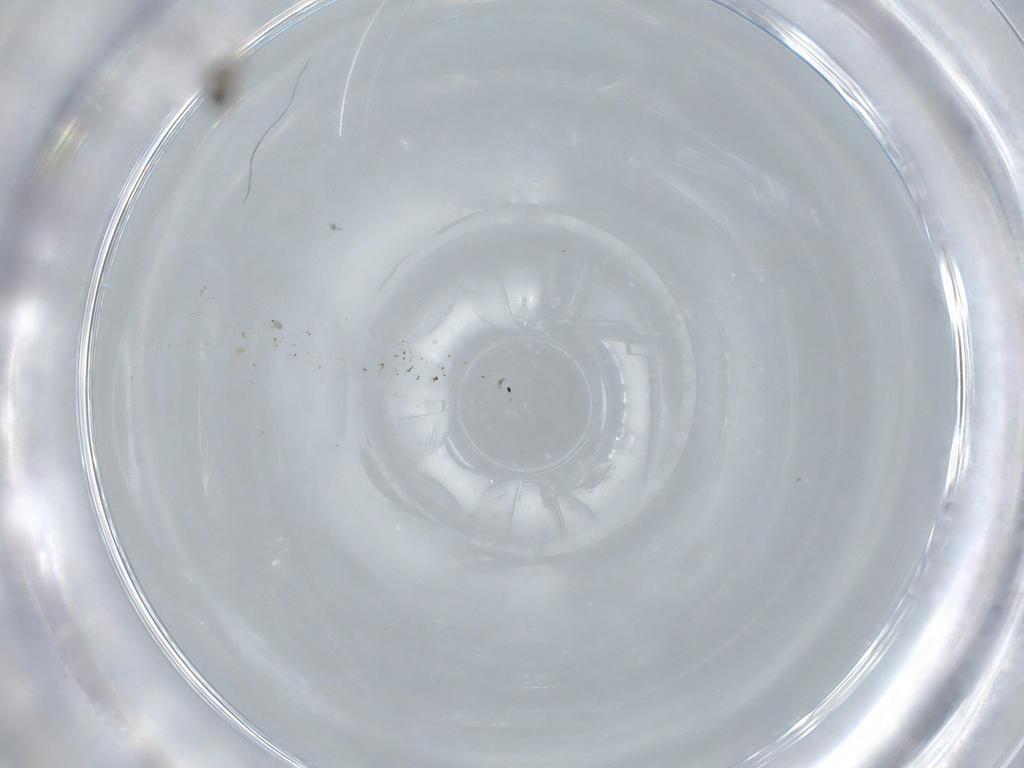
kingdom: Animalia
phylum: Arthropoda
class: Insecta
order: Diptera
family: Cecidomyiidae
